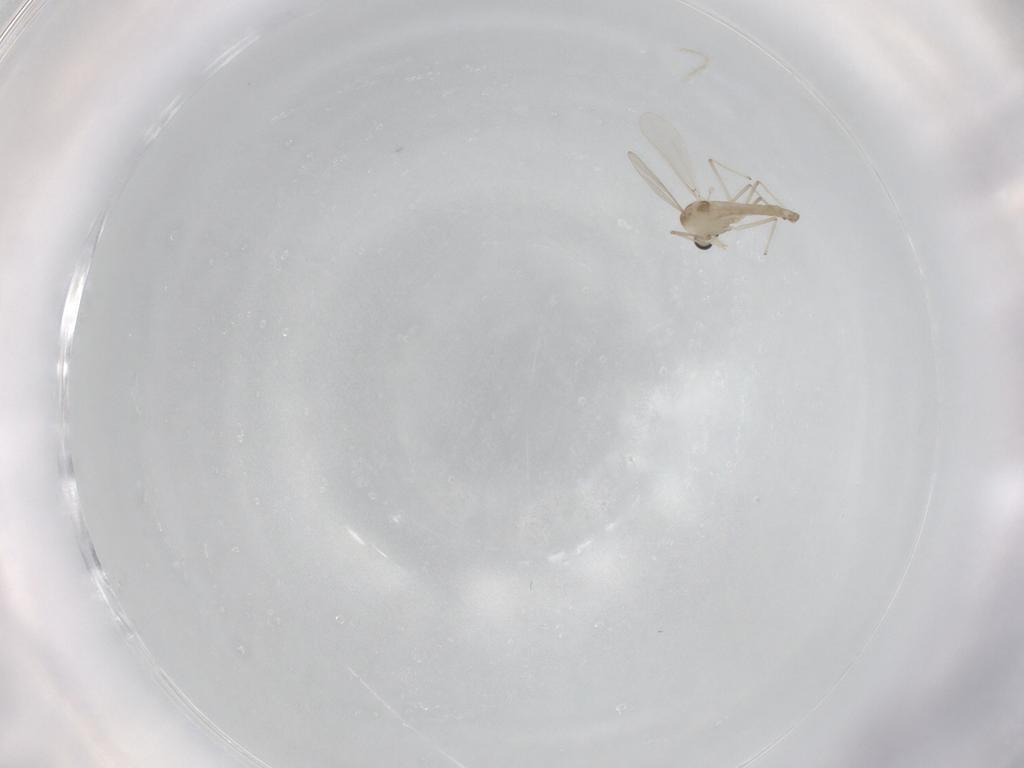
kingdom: Animalia
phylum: Arthropoda
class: Insecta
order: Diptera
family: Chironomidae
